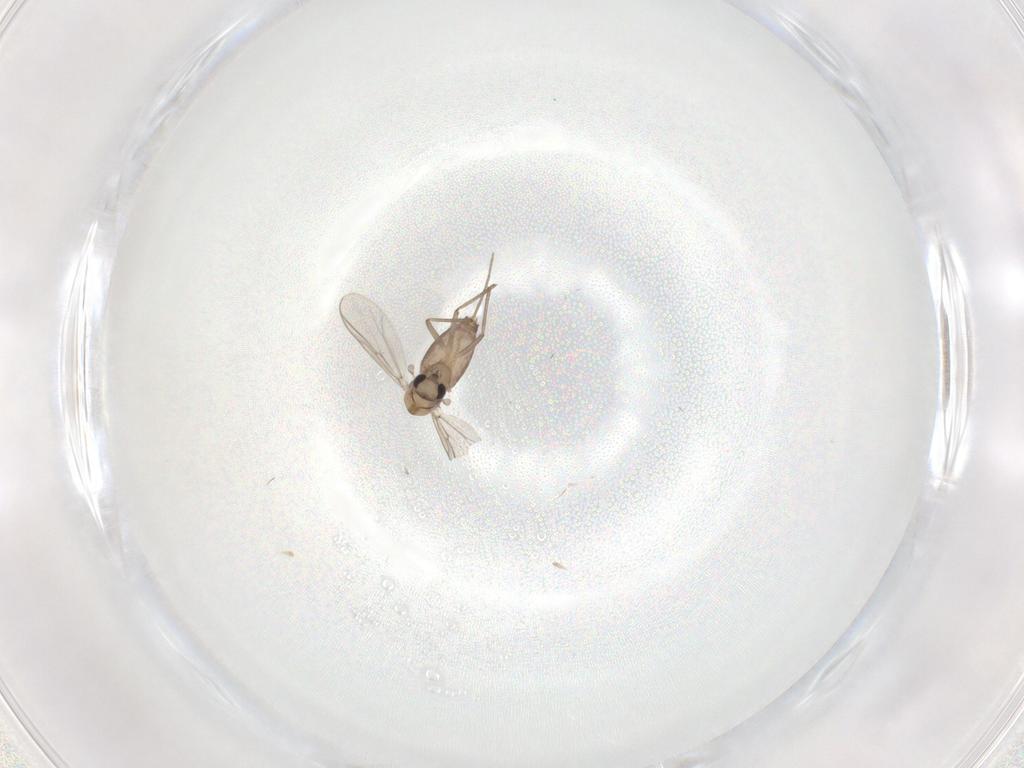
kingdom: Animalia
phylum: Arthropoda
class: Insecta
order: Diptera
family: Chironomidae
